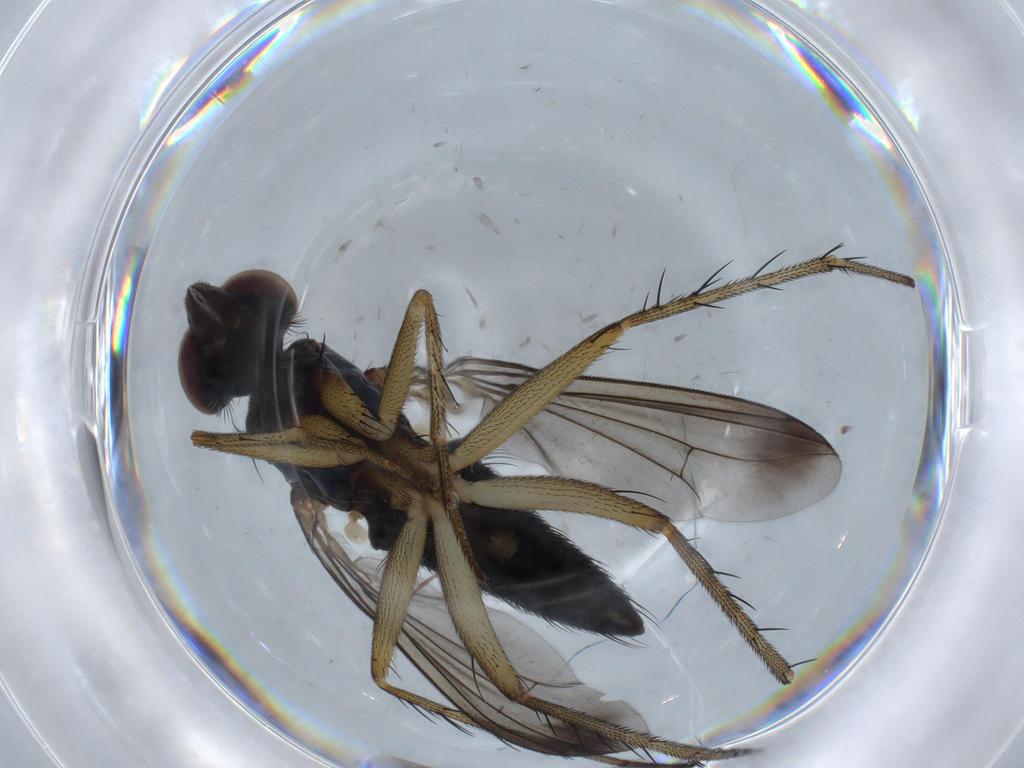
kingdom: Animalia
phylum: Arthropoda
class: Insecta
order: Diptera
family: Dolichopodidae
